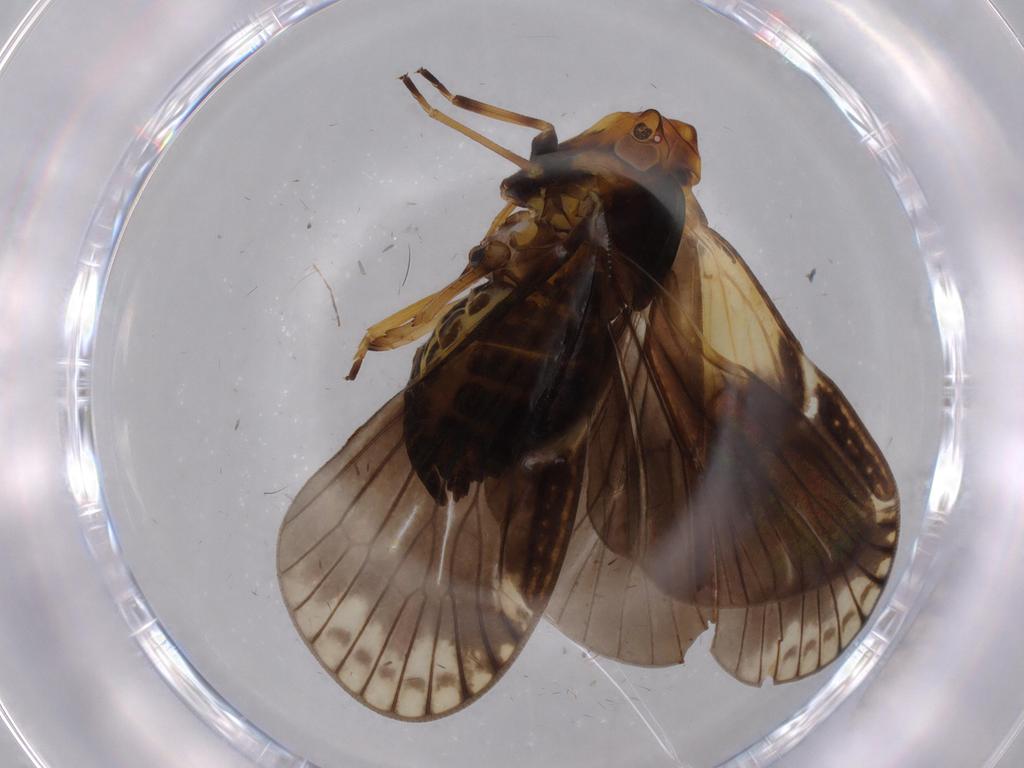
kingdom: Animalia
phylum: Arthropoda
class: Insecta
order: Hemiptera
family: Cixiidae
